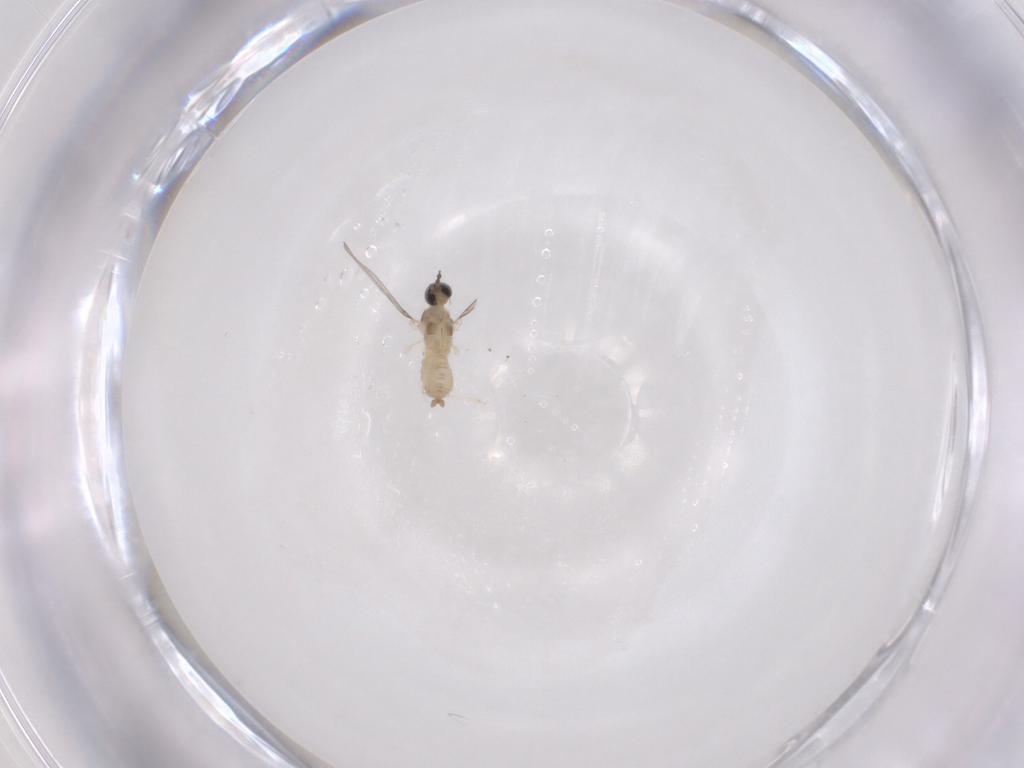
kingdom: Animalia
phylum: Arthropoda
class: Insecta
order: Diptera
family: Cecidomyiidae
